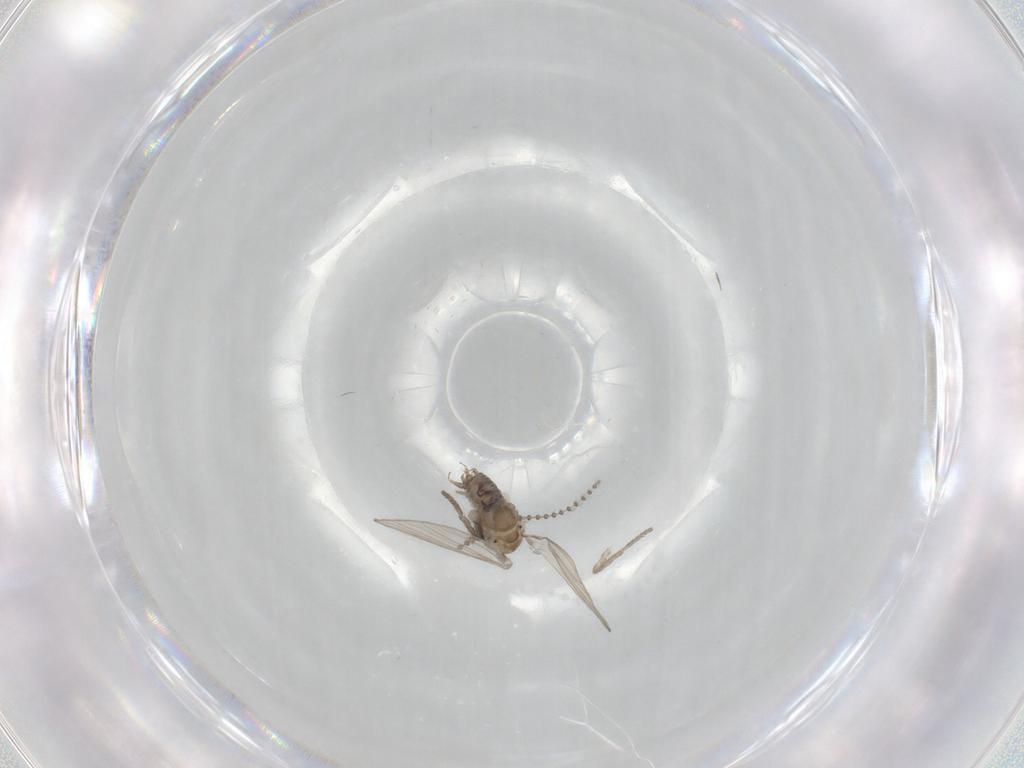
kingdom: Animalia
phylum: Arthropoda
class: Insecta
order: Diptera
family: Psychodidae
